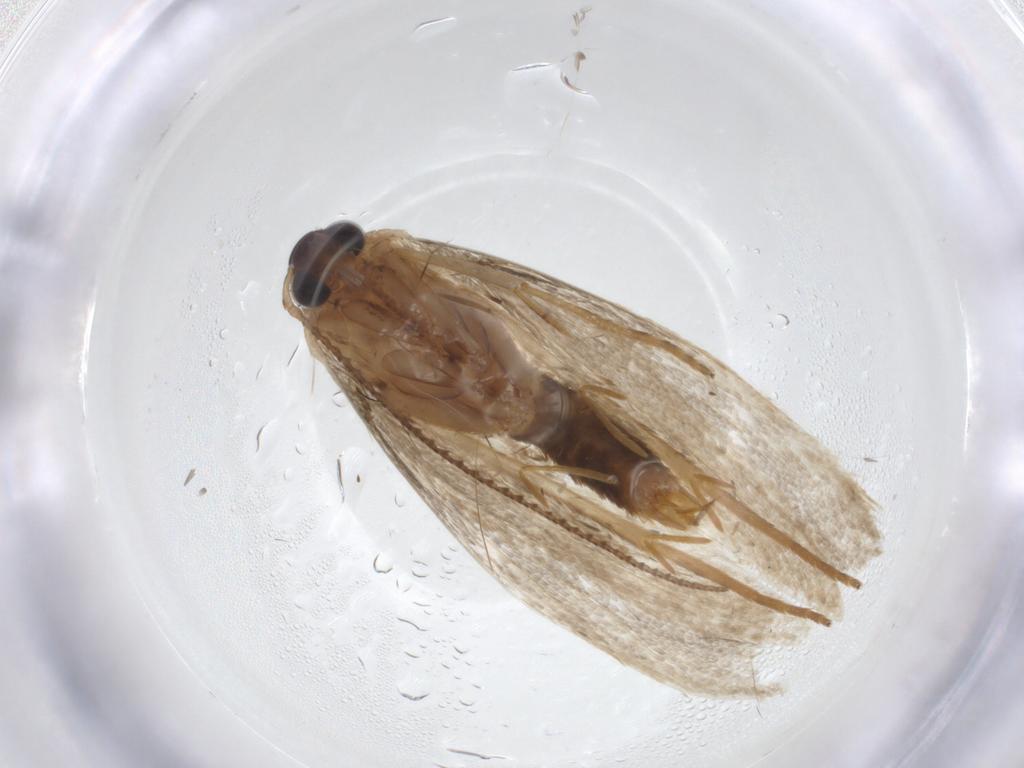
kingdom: Animalia
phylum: Arthropoda
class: Insecta
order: Lepidoptera
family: Erebidae
